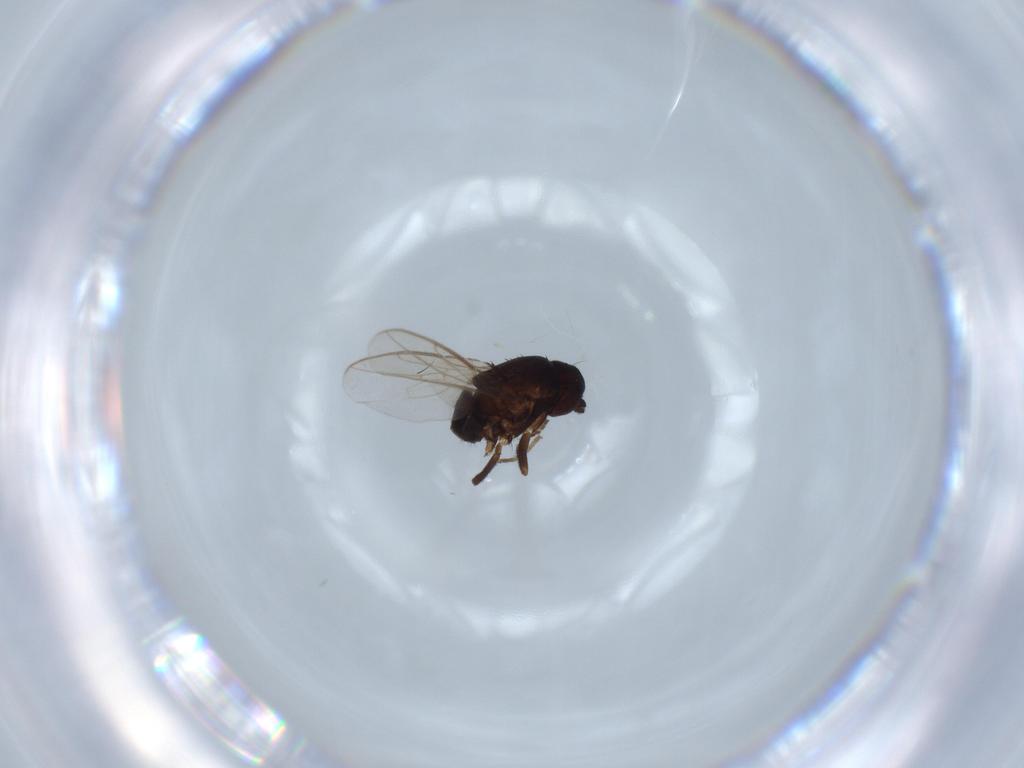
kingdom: Animalia
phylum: Arthropoda
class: Insecta
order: Diptera
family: Sphaeroceridae
